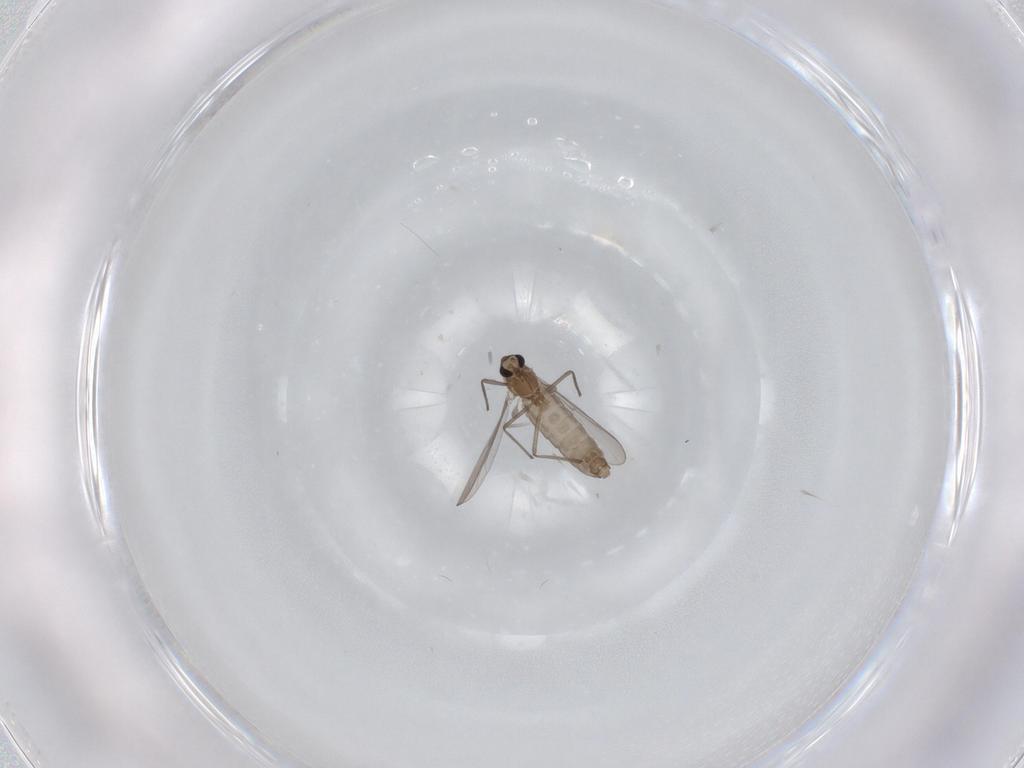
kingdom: Animalia
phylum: Arthropoda
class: Insecta
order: Diptera
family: Chironomidae
